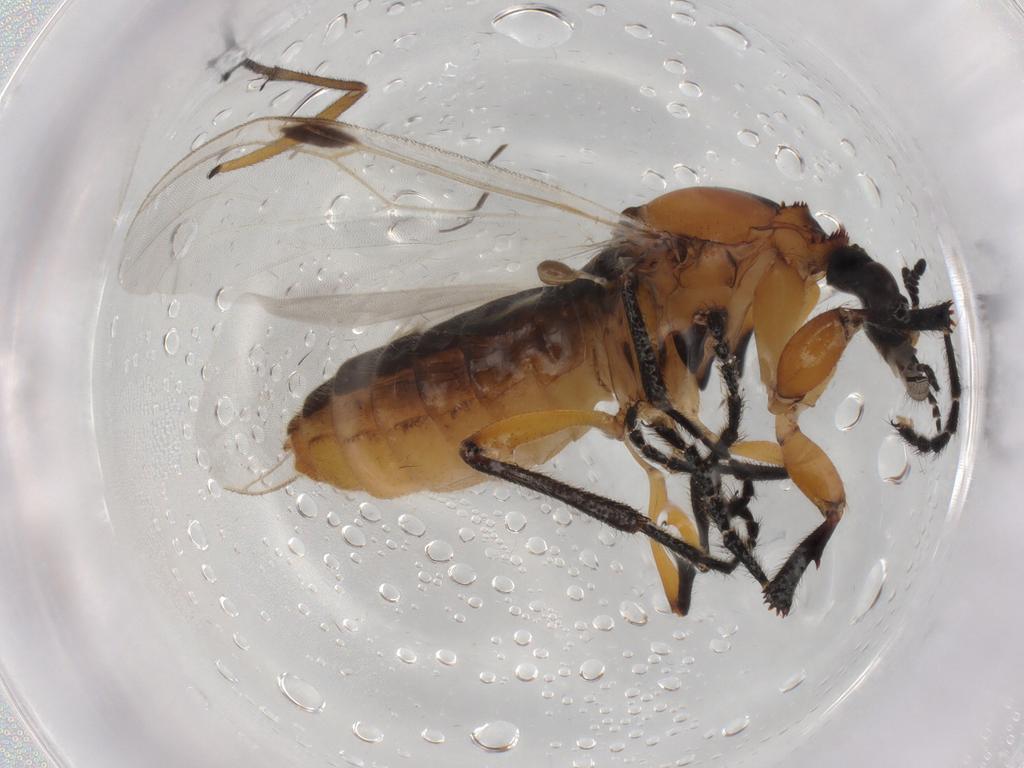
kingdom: Animalia
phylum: Arthropoda
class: Insecta
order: Diptera
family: Bibionidae
